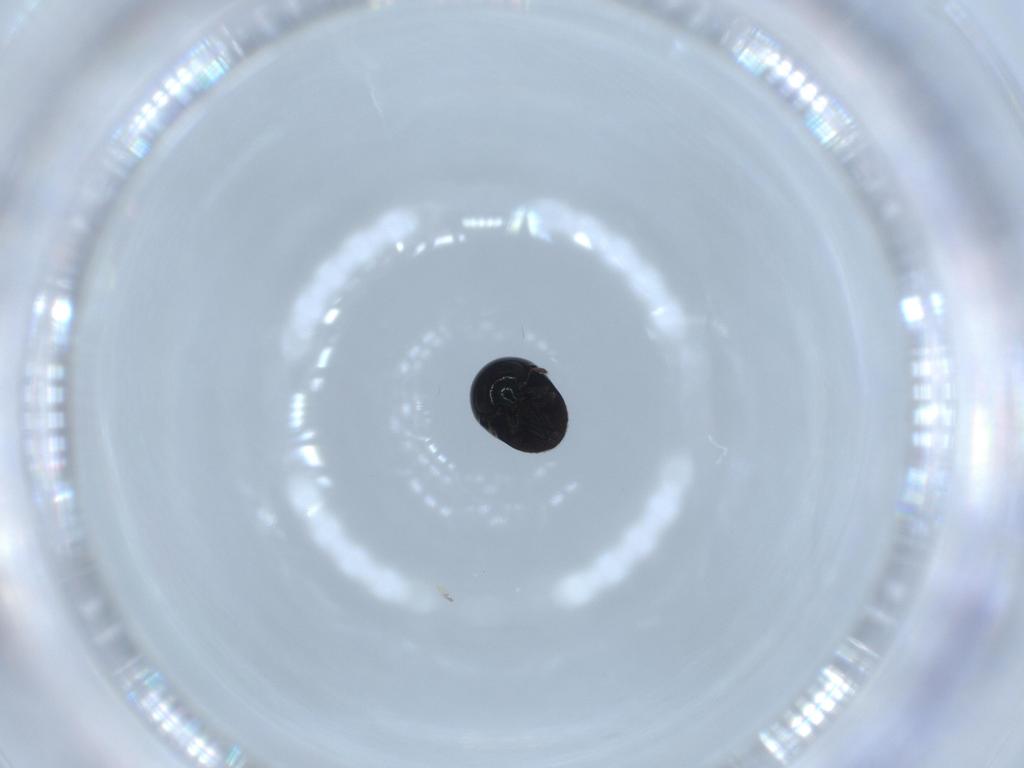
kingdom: Animalia
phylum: Arthropoda
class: Insecta
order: Coleoptera
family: Cybocephalidae
